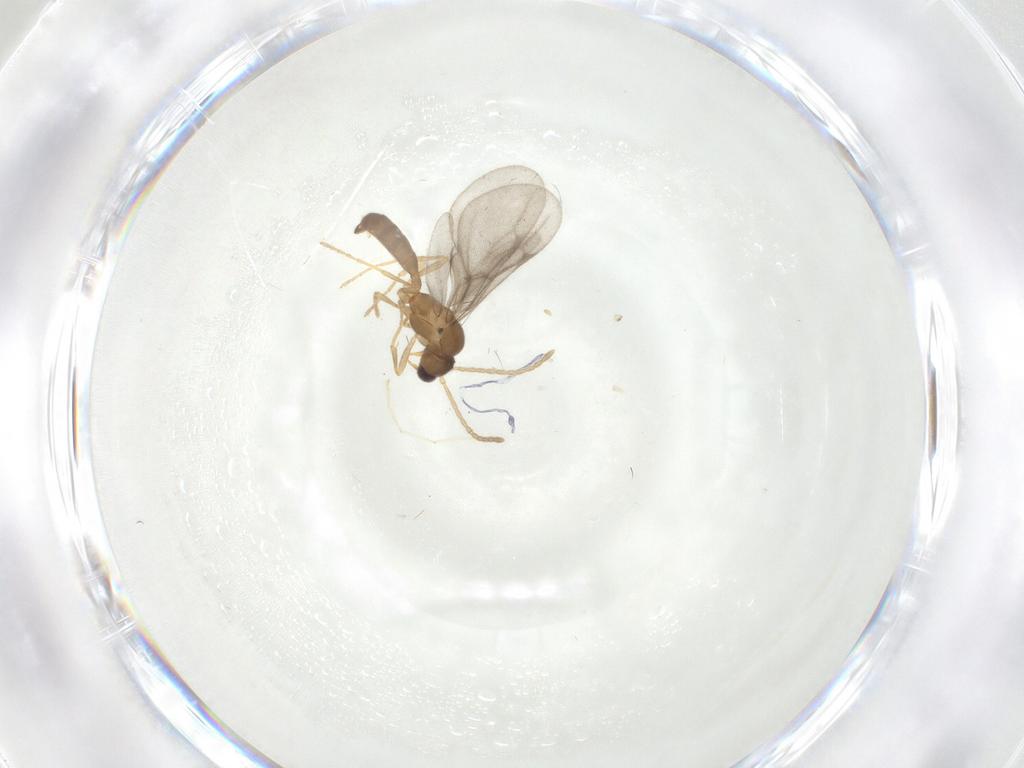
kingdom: Animalia
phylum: Arthropoda
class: Insecta
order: Hymenoptera
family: Formicidae
